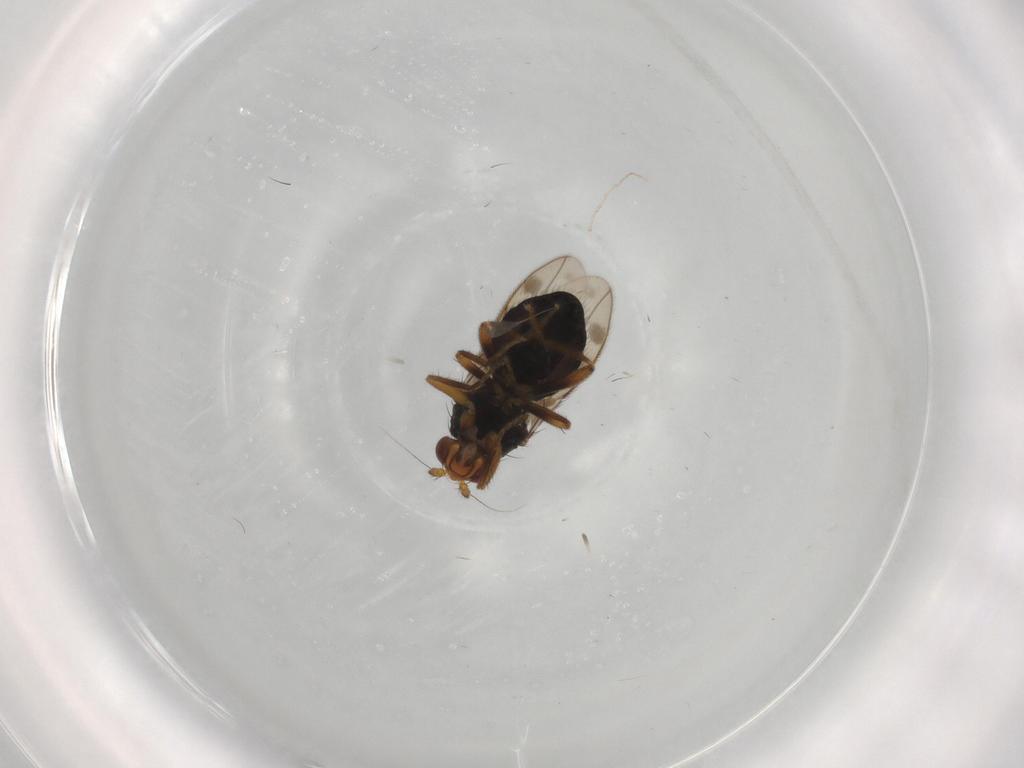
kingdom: Animalia
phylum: Arthropoda
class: Insecta
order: Diptera
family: Sphaeroceridae
